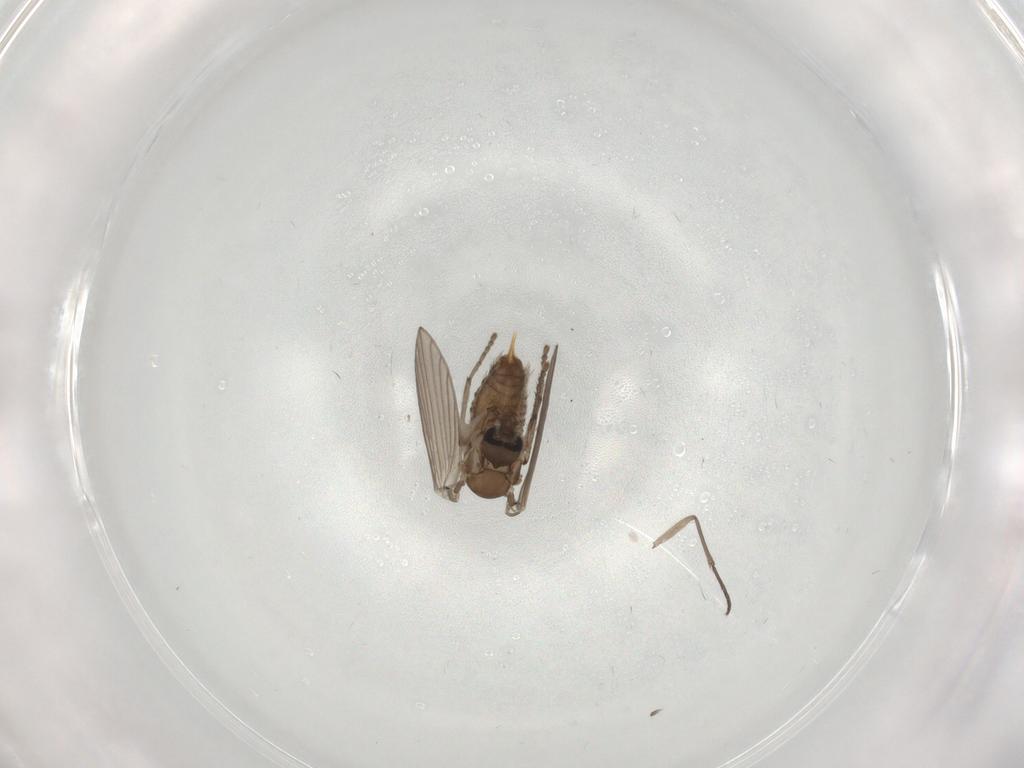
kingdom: Animalia
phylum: Arthropoda
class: Insecta
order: Diptera
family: Psychodidae
